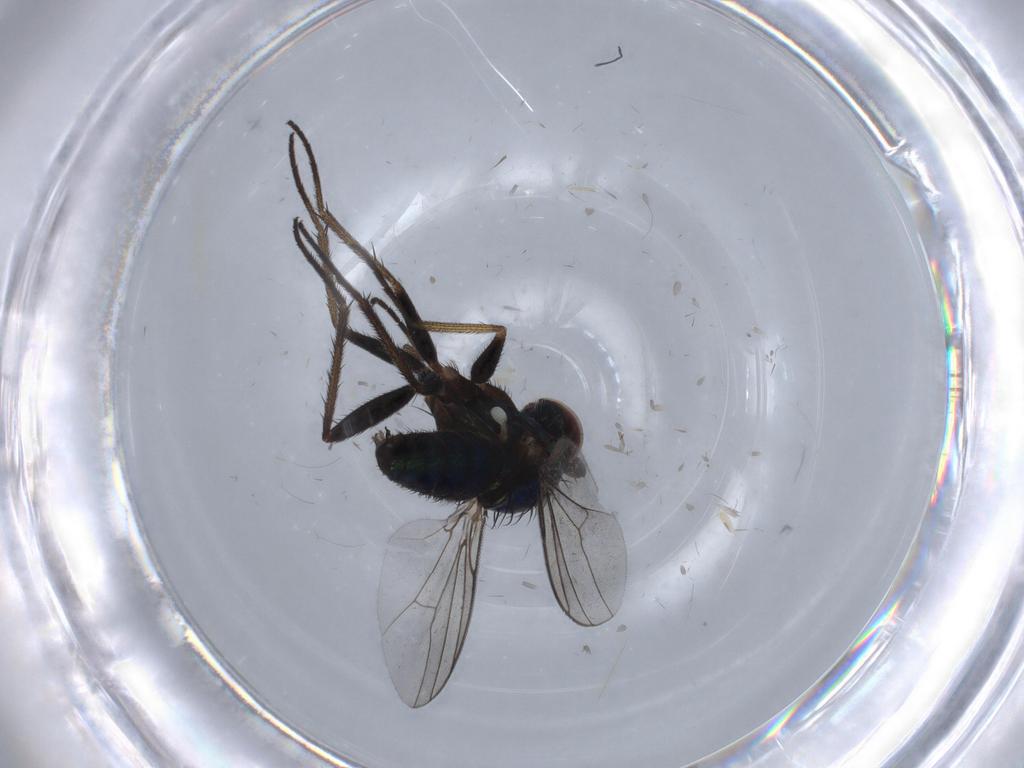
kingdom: Animalia
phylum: Arthropoda
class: Insecta
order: Diptera
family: Dolichopodidae
